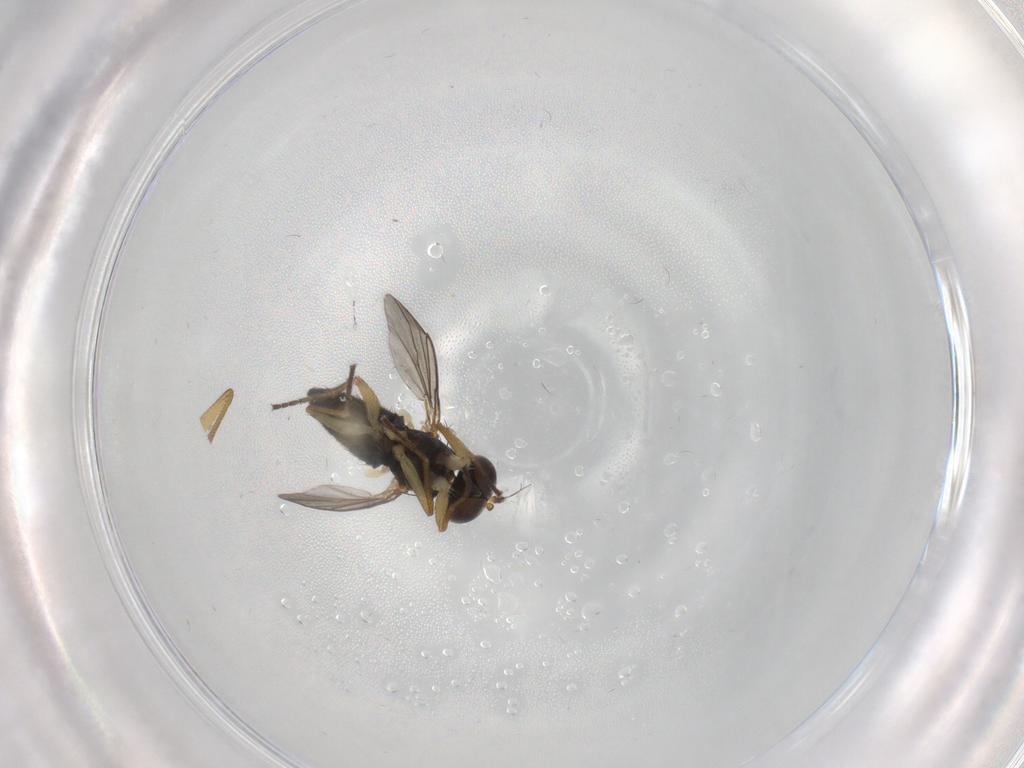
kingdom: Animalia
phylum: Arthropoda
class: Insecta
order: Diptera
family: Dolichopodidae
